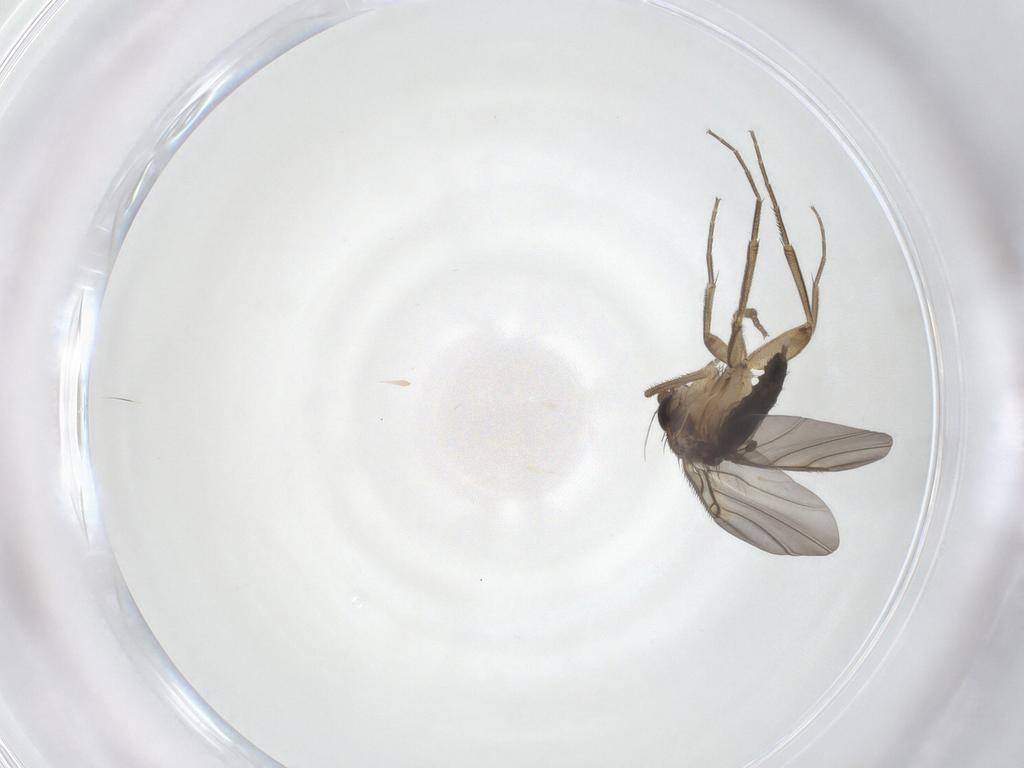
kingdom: Animalia
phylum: Arthropoda
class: Insecta
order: Diptera
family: Phoridae
